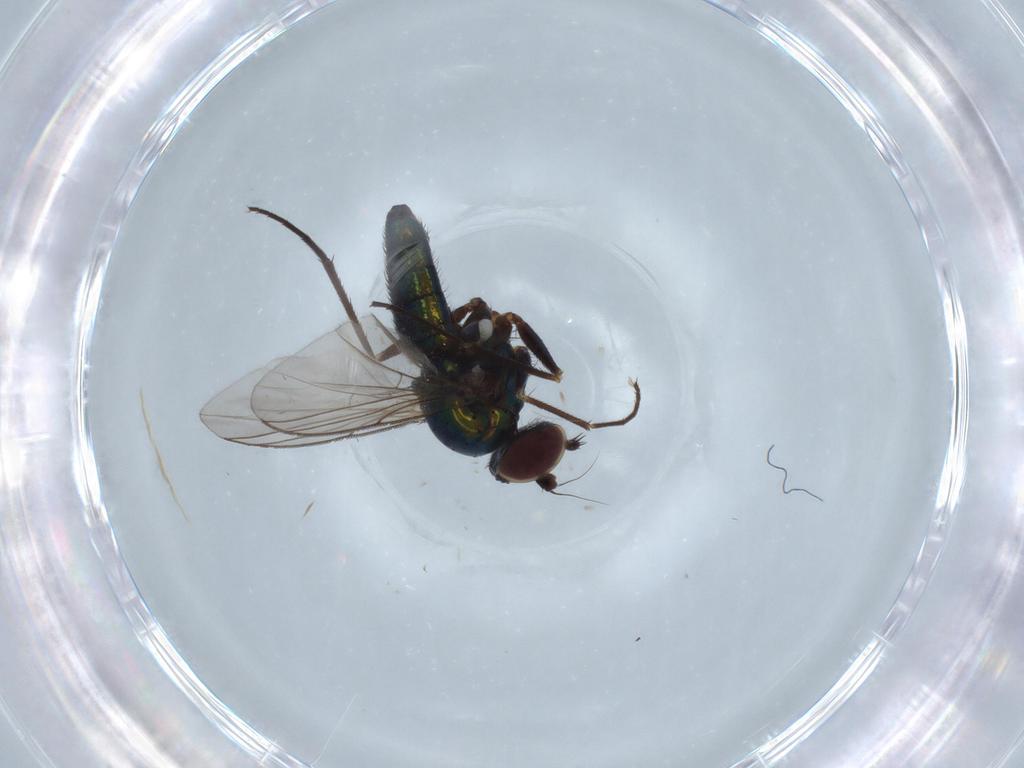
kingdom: Animalia
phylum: Arthropoda
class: Insecta
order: Diptera
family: Dolichopodidae
